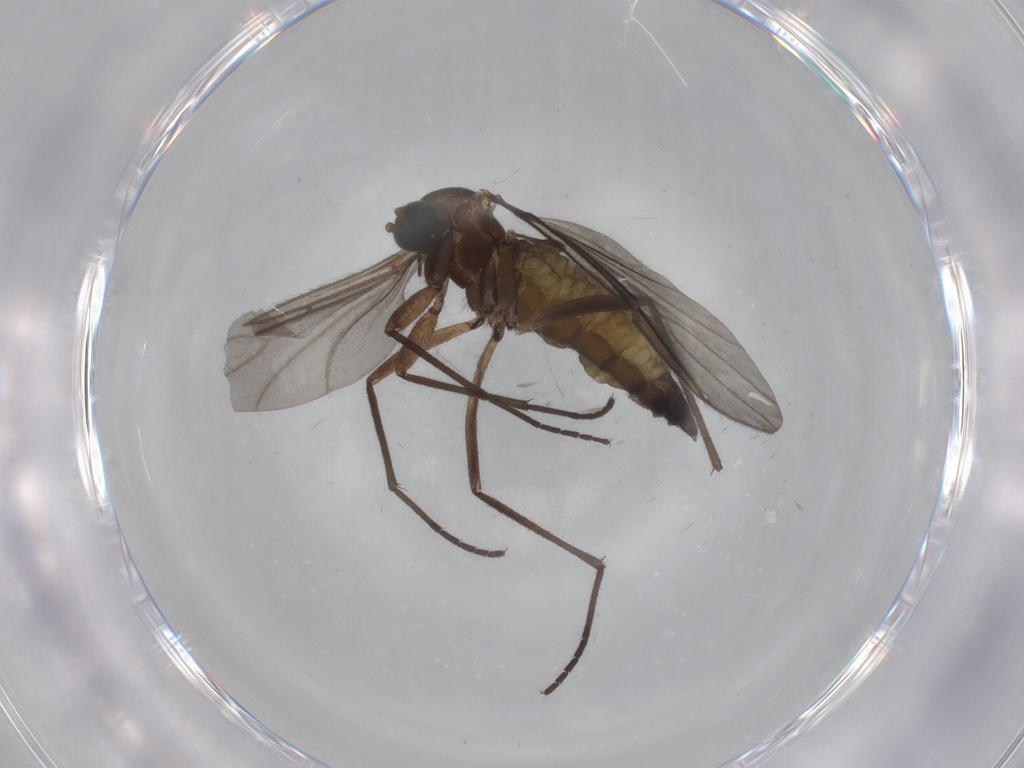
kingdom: Animalia
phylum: Arthropoda
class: Insecta
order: Diptera
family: Sciaridae
